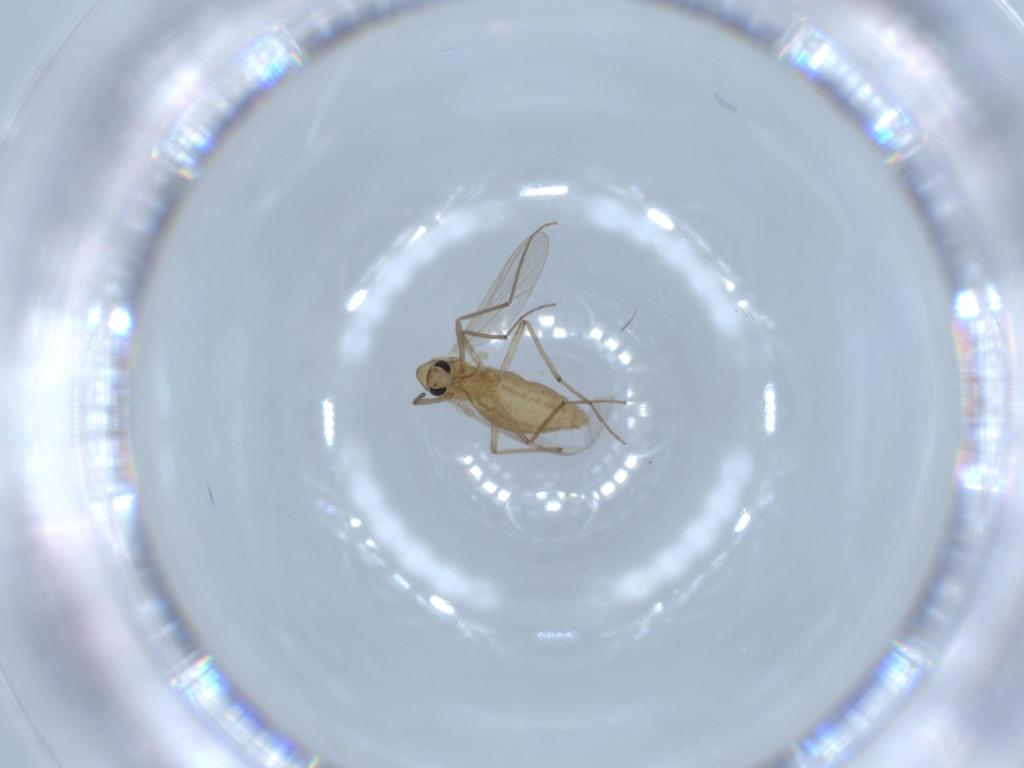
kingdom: Animalia
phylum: Arthropoda
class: Insecta
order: Diptera
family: Chironomidae
